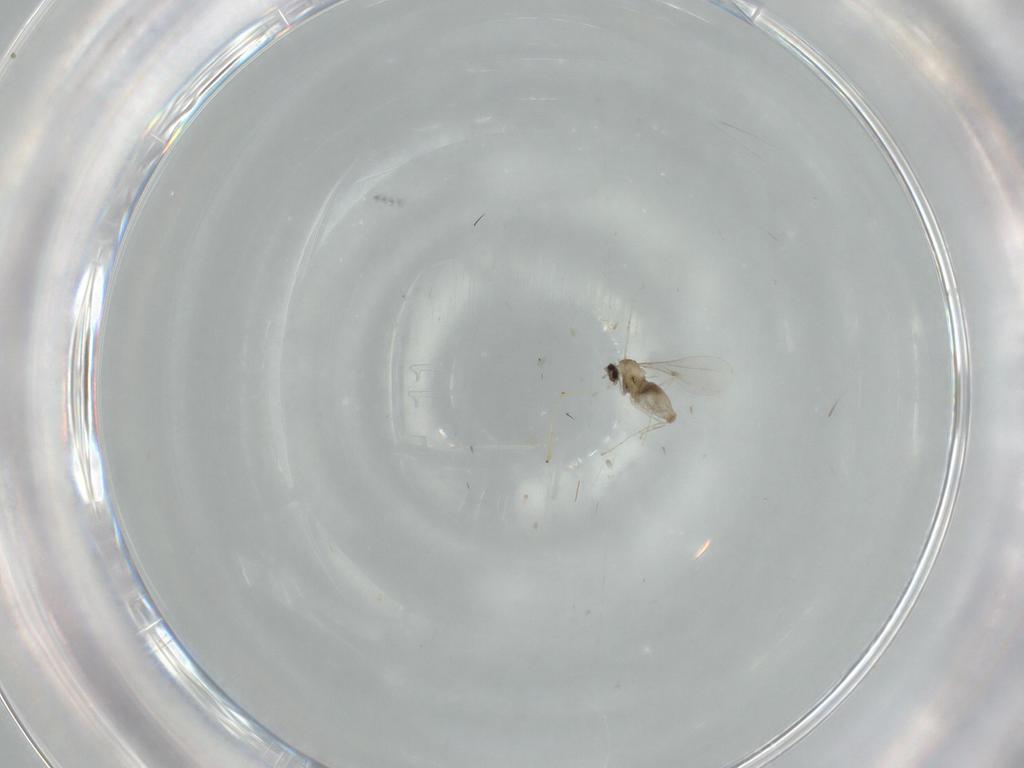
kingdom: Animalia
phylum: Arthropoda
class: Insecta
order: Diptera
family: Cecidomyiidae
